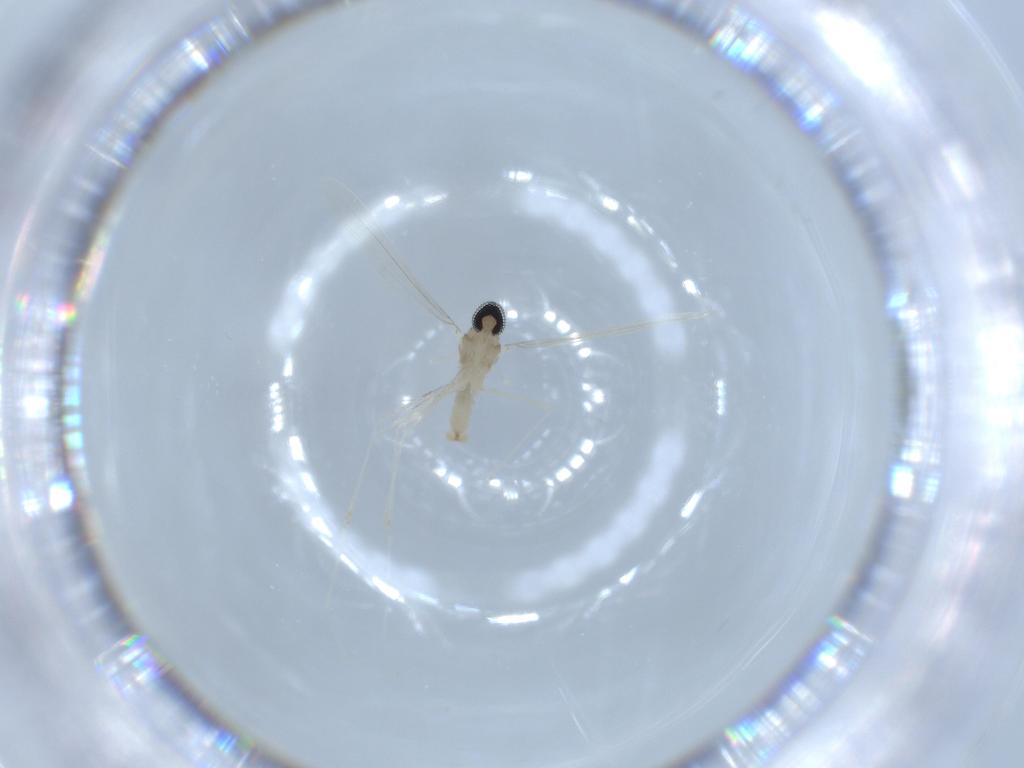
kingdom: Animalia
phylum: Arthropoda
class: Insecta
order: Diptera
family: Cecidomyiidae
